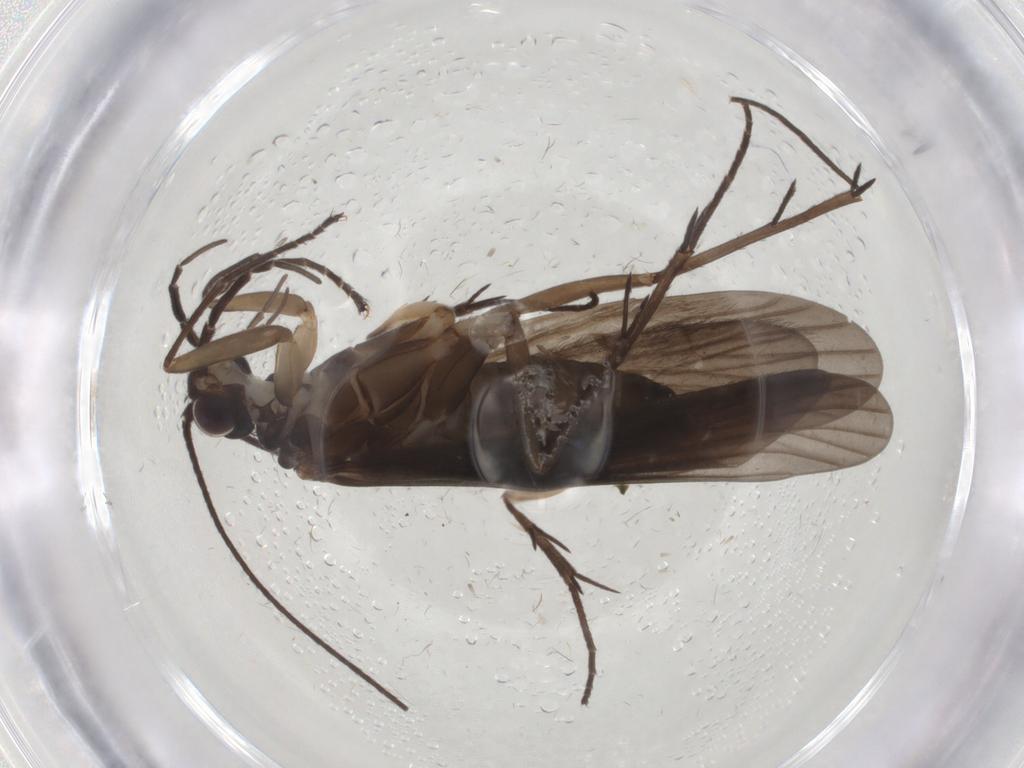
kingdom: Animalia
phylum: Arthropoda
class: Insecta
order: Trichoptera
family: Philopotamidae
